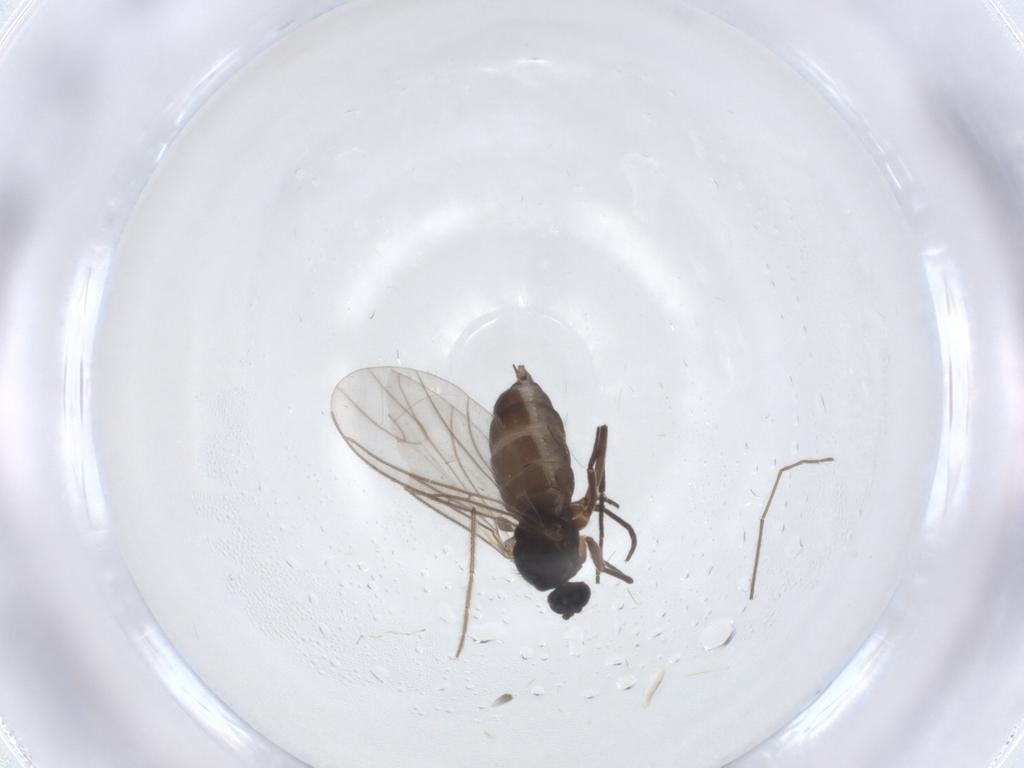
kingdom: Animalia
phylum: Arthropoda
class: Insecta
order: Diptera
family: Sciaridae
